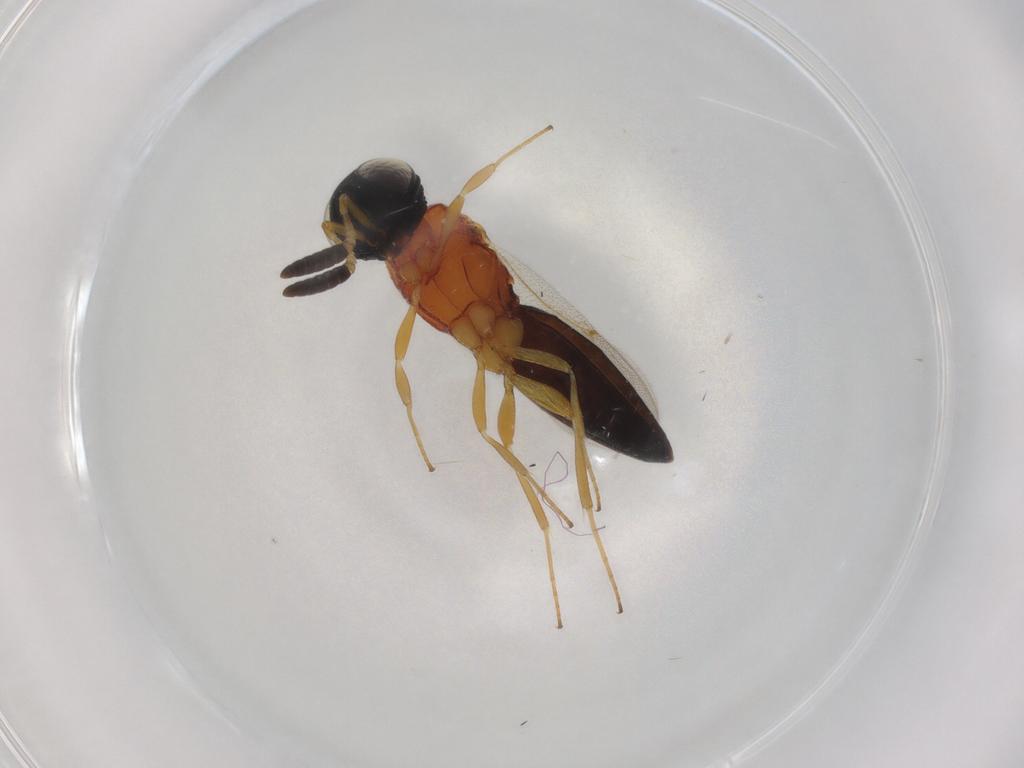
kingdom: Animalia
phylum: Arthropoda
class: Insecta
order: Hymenoptera
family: Scelionidae
